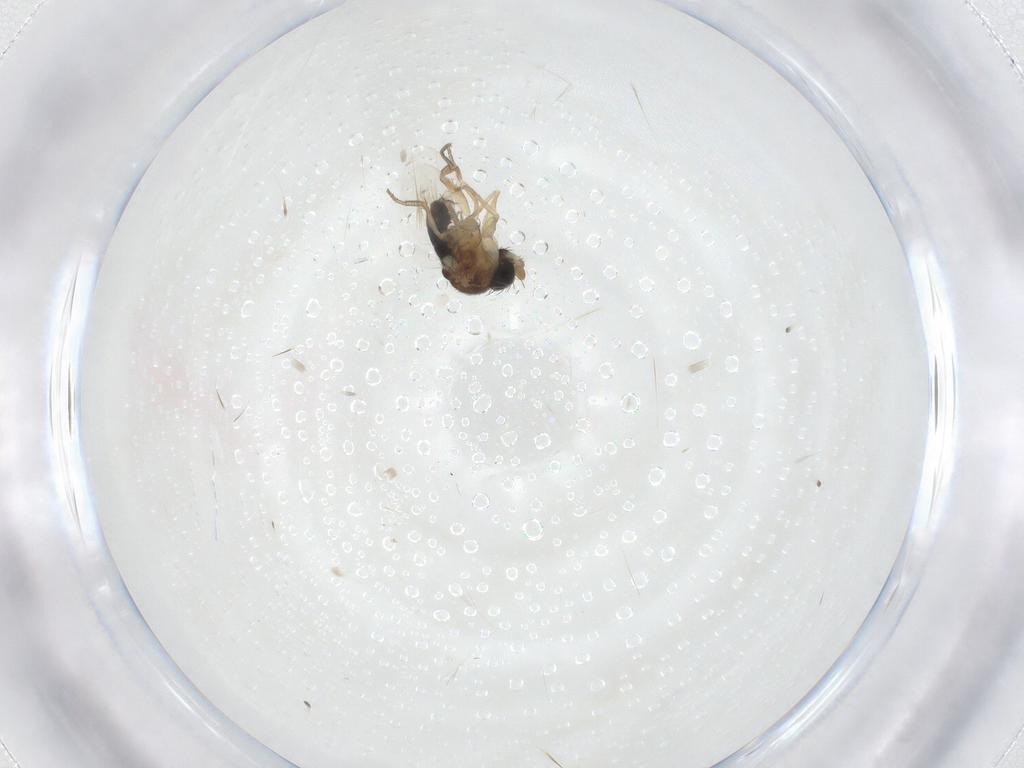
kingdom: Animalia
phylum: Arthropoda
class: Insecta
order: Diptera
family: Phoridae
